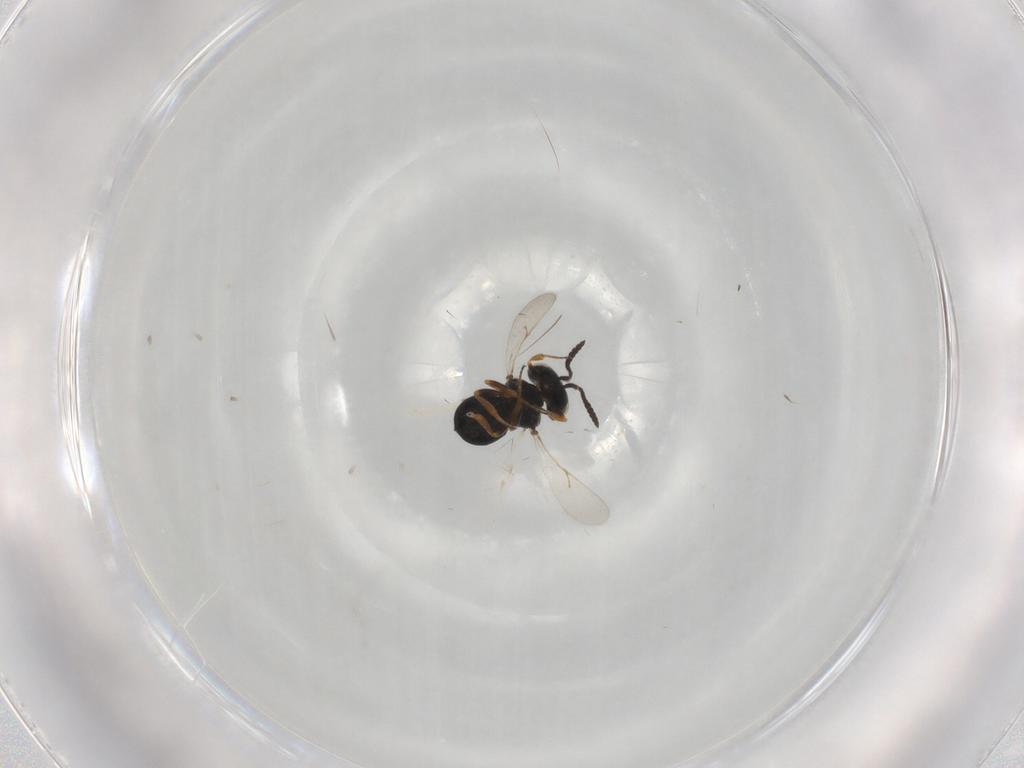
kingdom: Animalia
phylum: Arthropoda
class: Insecta
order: Hymenoptera
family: Scelionidae
